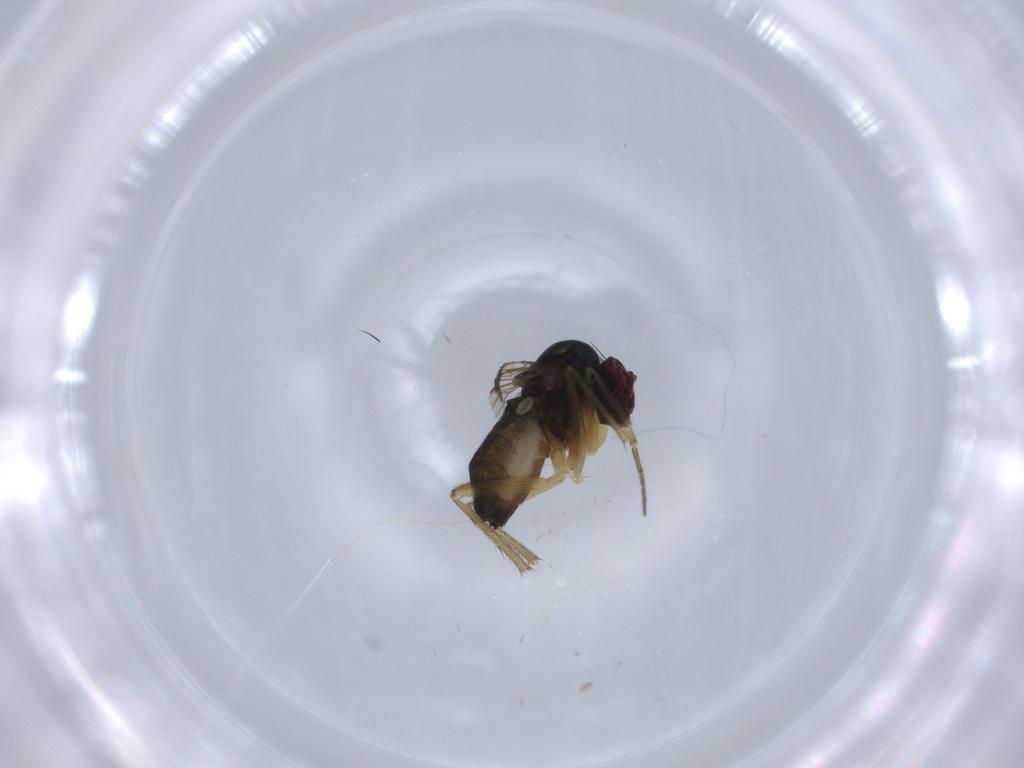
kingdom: Animalia
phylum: Arthropoda
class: Insecta
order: Diptera
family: Dolichopodidae
